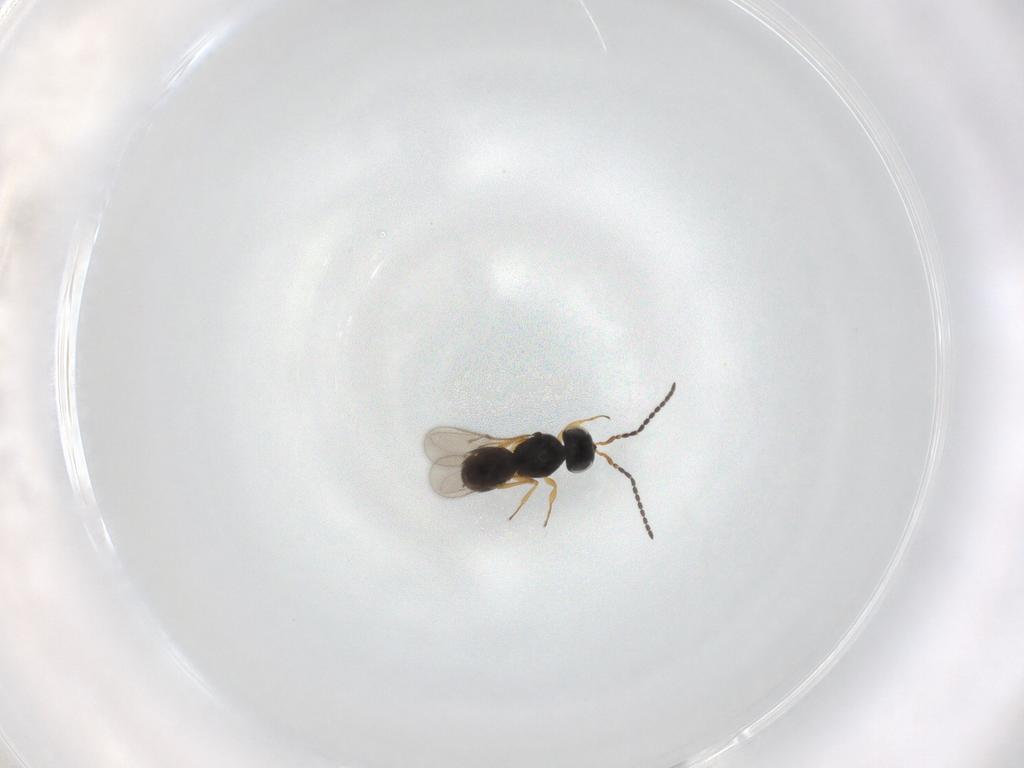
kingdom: Animalia
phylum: Arthropoda
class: Insecta
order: Hymenoptera
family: Scelionidae
